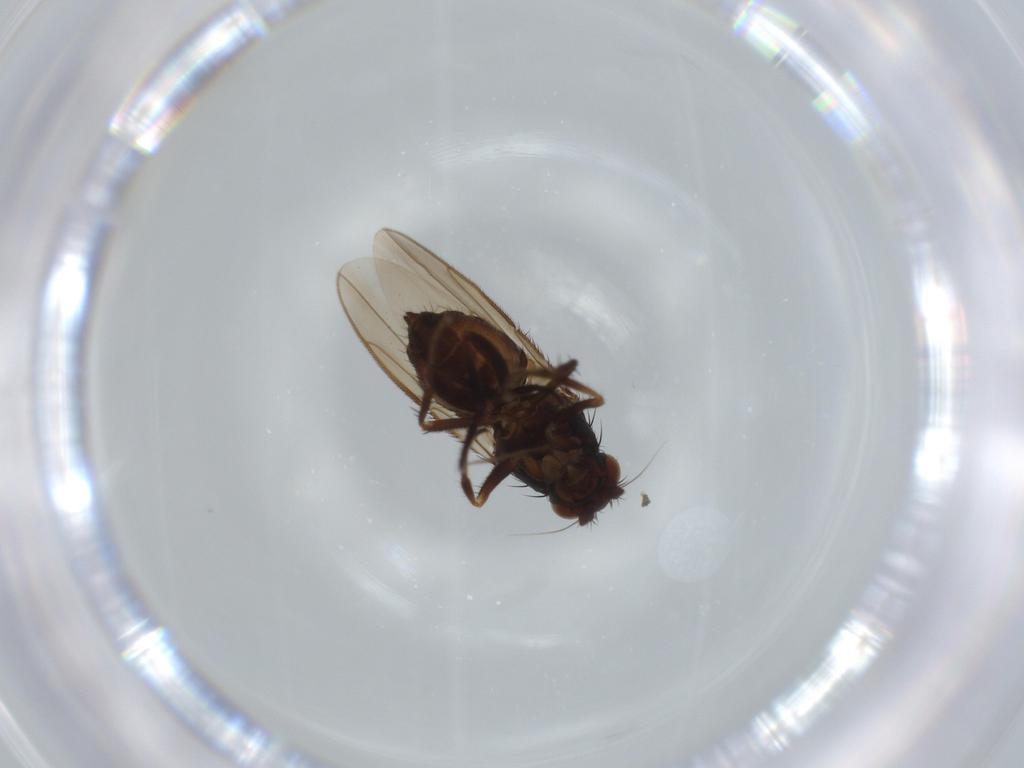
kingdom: Animalia
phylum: Arthropoda
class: Insecta
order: Diptera
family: Sphaeroceridae
